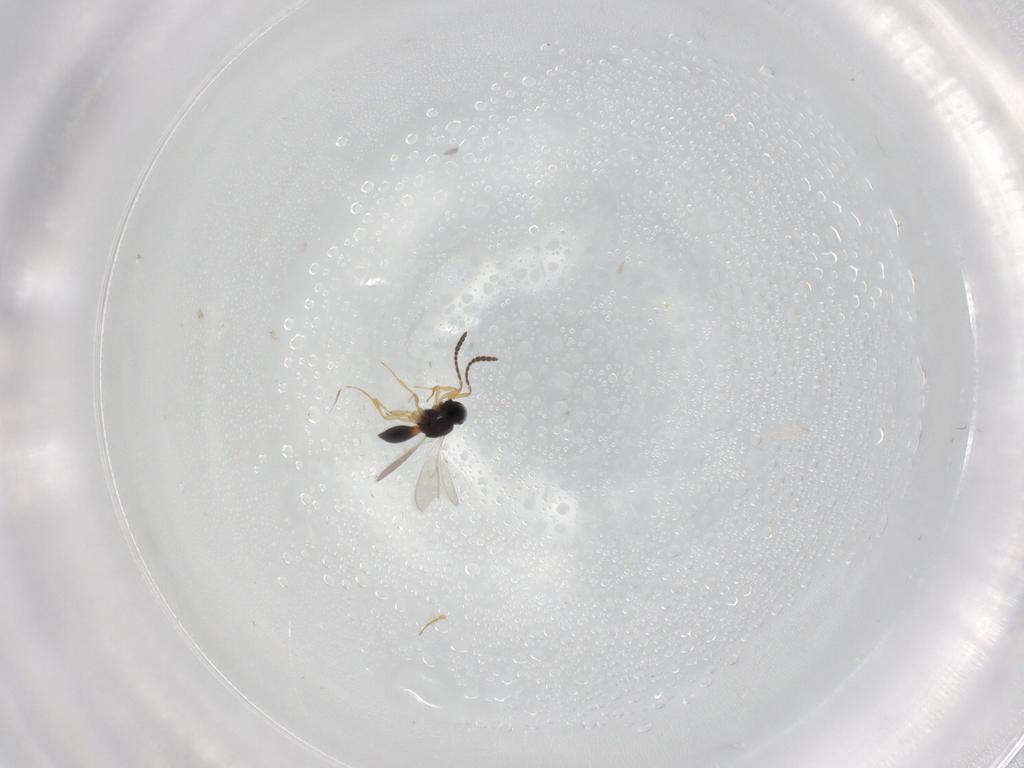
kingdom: Animalia
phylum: Arthropoda
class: Insecta
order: Hymenoptera
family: Scelionidae
